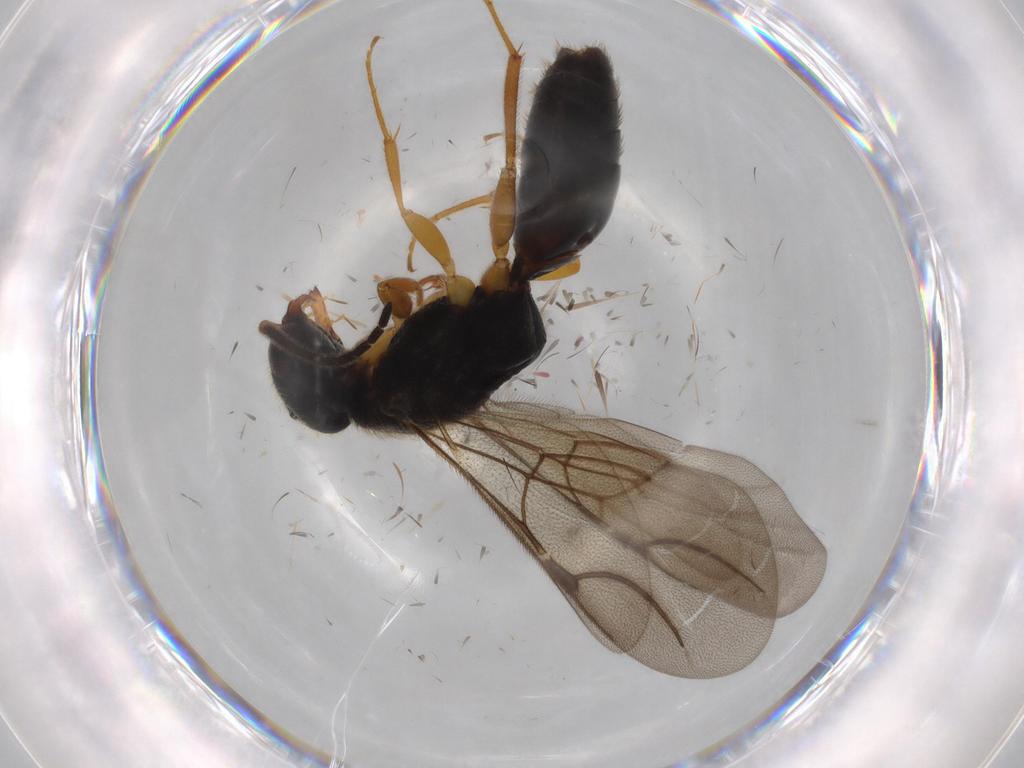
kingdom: Animalia
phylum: Arthropoda
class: Insecta
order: Hymenoptera
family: Bethylidae
